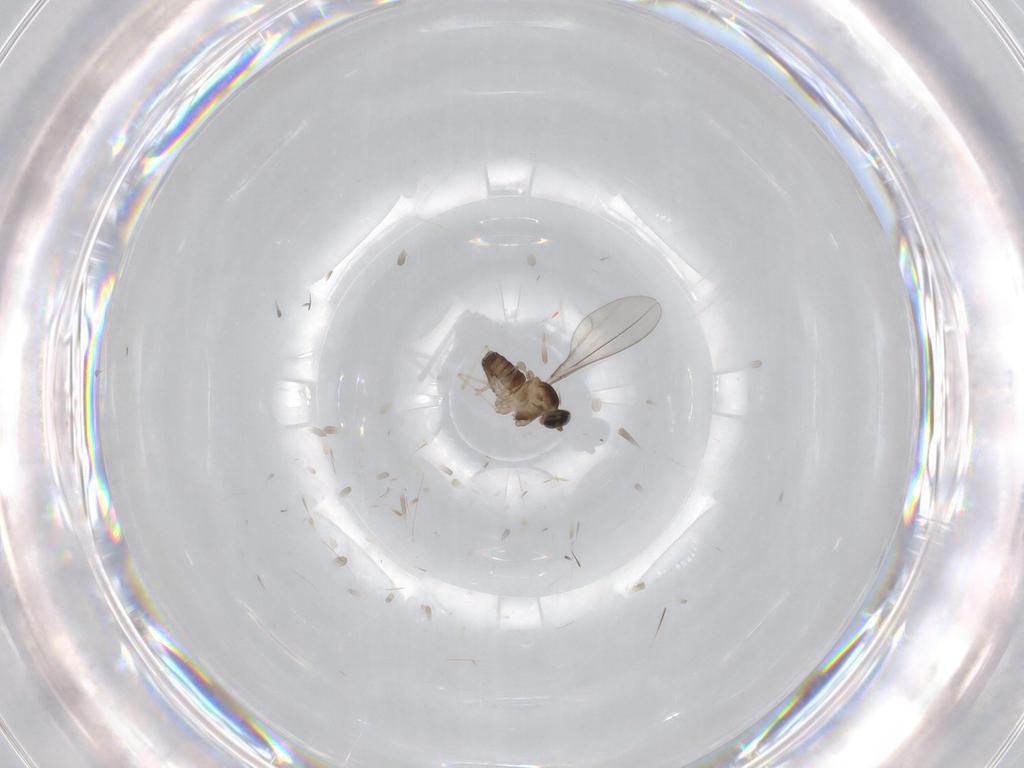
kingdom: Animalia
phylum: Arthropoda
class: Insecta
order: Diptera
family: Cecidomyiidae
